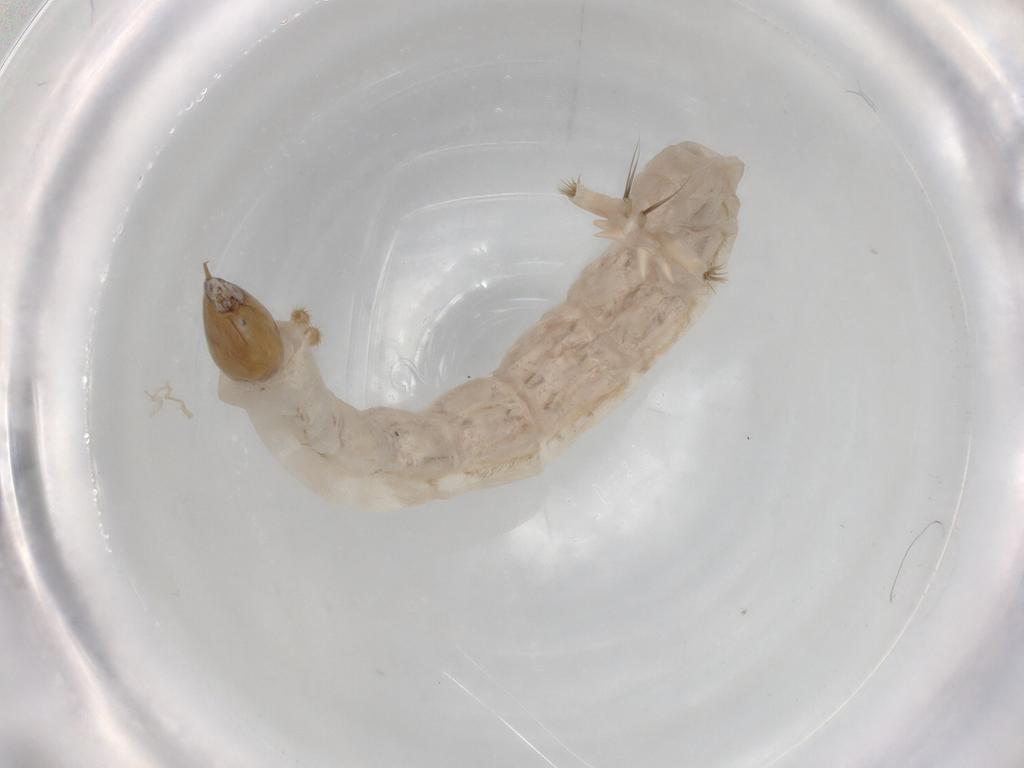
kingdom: Animalia
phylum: Arthropoda
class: Insecta
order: Diptera
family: Chironomidae
